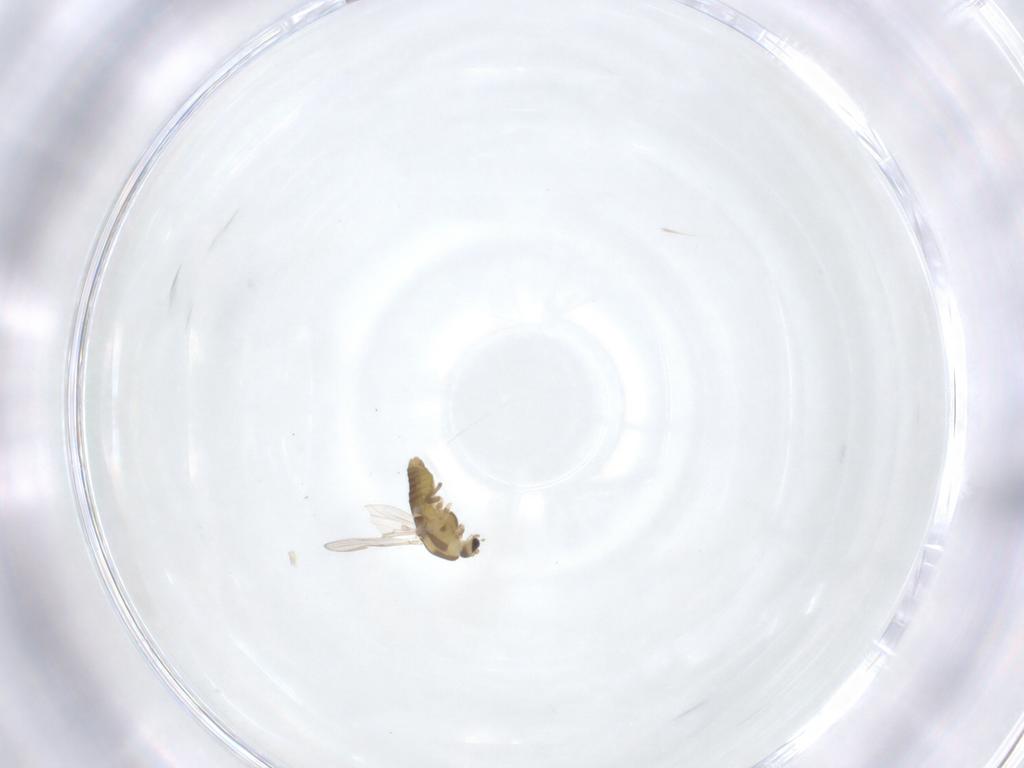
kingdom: Animalia
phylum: Arthropoda
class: Insecta
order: Diptera
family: Chironomidae
